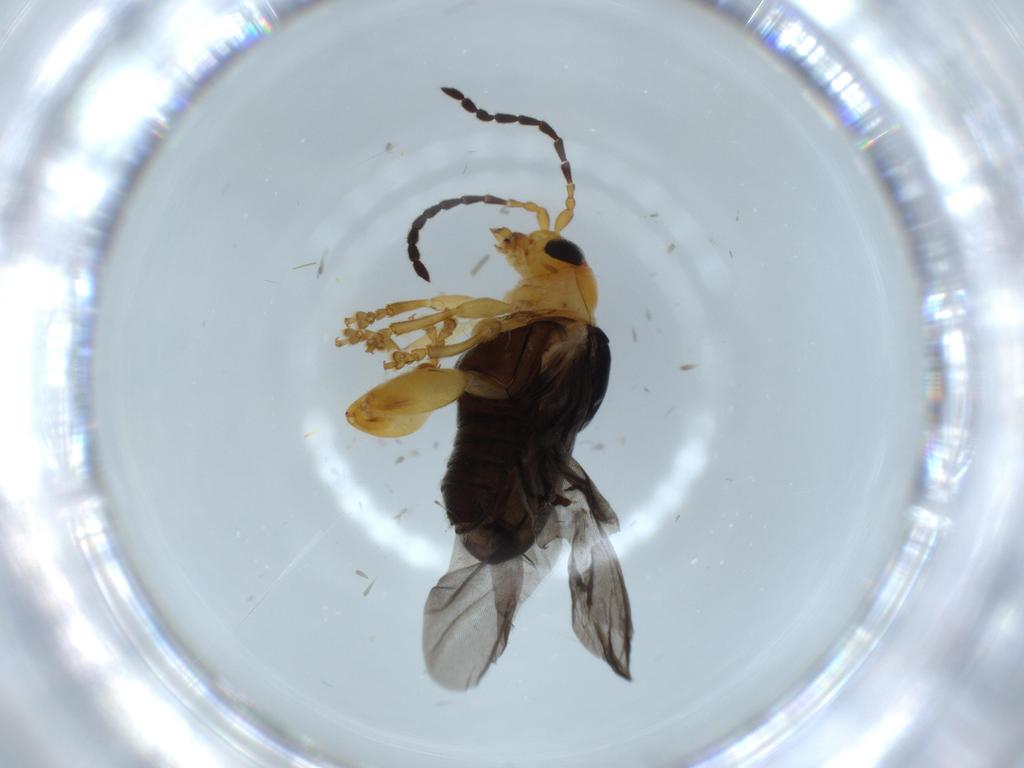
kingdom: Animalia
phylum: Arthropoda
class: Insecta
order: Coleoptera
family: Chrysomelidae
